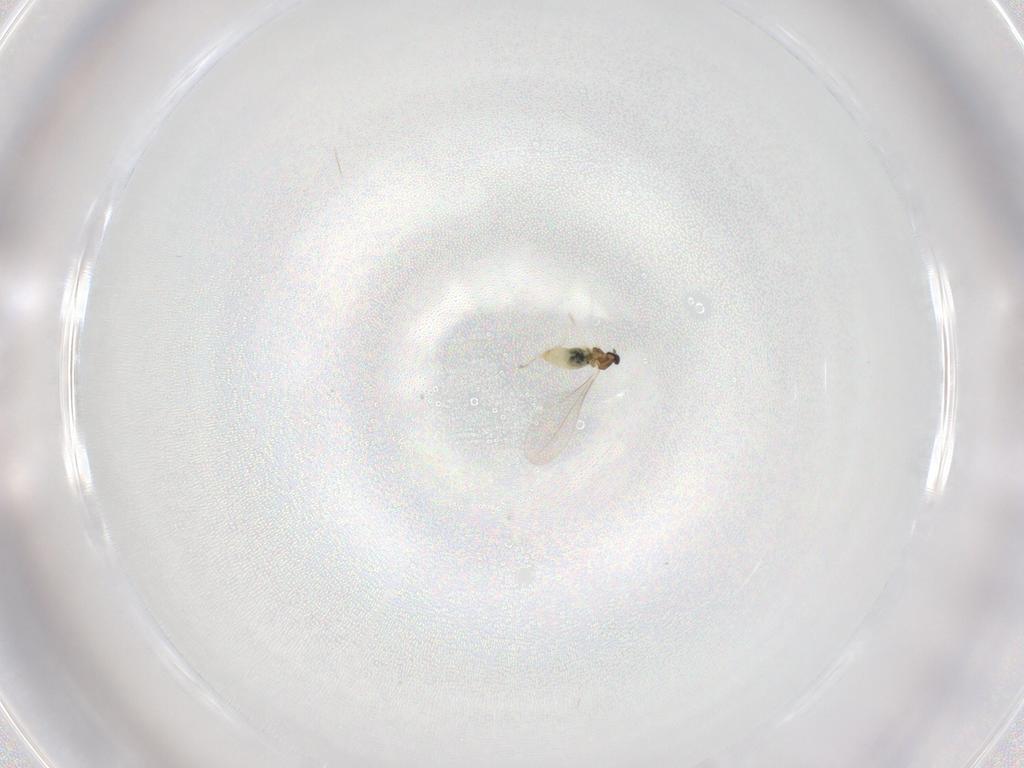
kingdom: Animalia
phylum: Arthropoda
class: Insecta
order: Diptera
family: Cecidomyiidae
